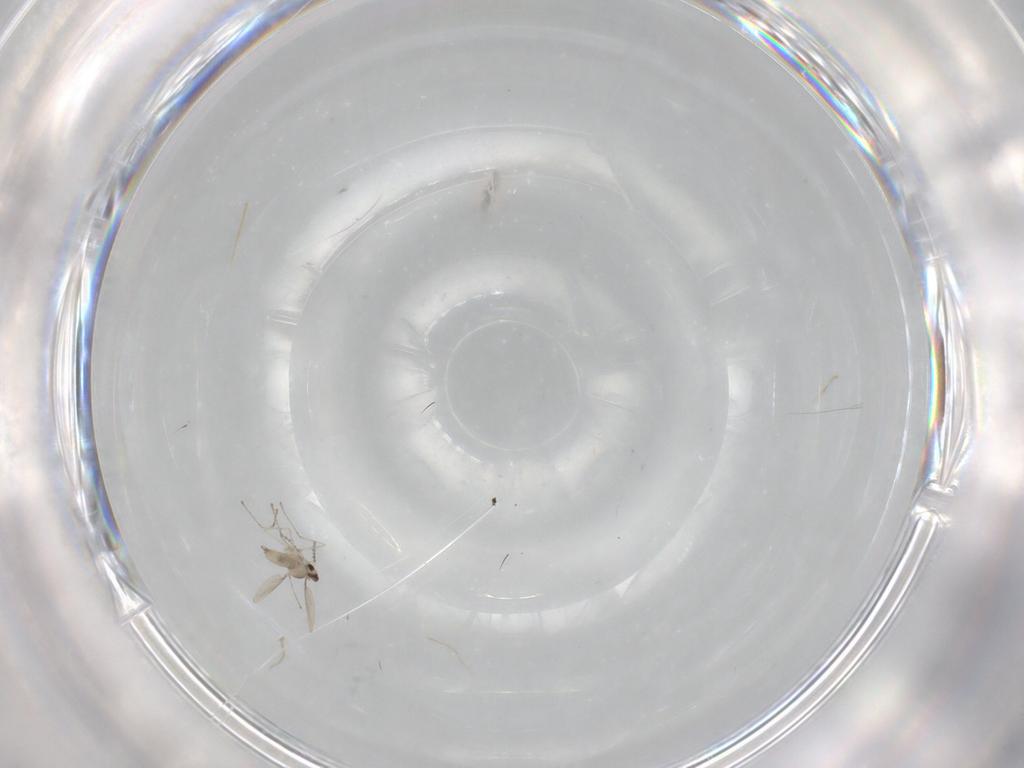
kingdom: Animalia
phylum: Arthropoda
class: Insecta
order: Diptera
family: Cecidomyiidae
